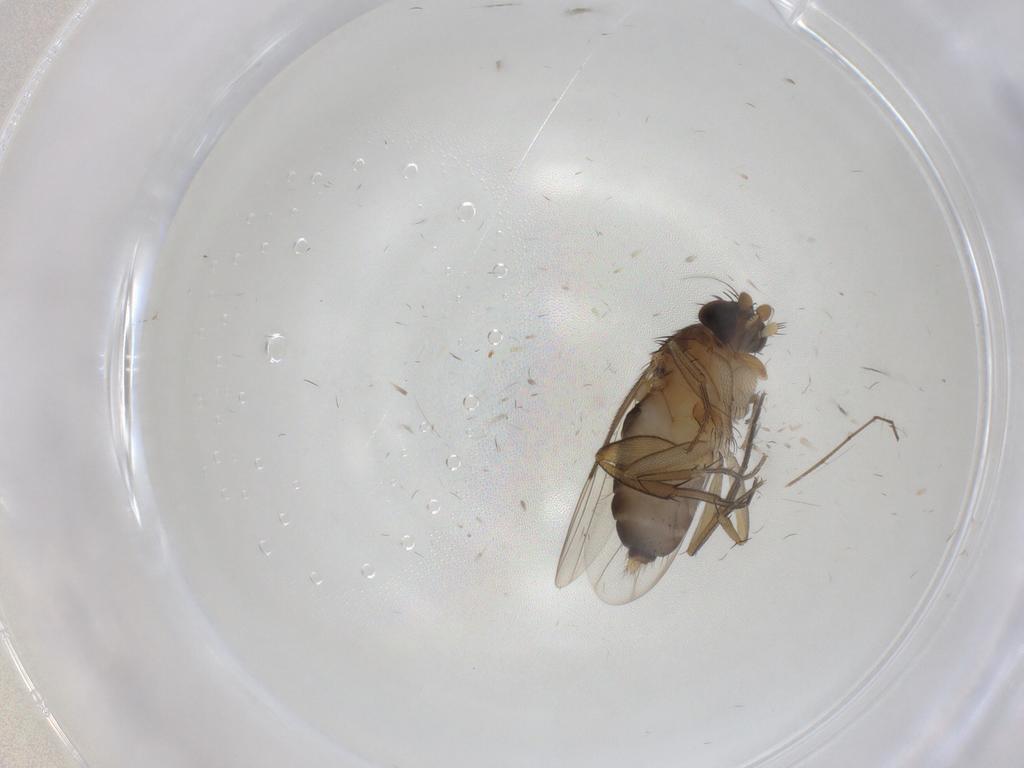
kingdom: Animalia
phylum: Arthropoda
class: Insecta
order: Diptera
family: Phoridae
